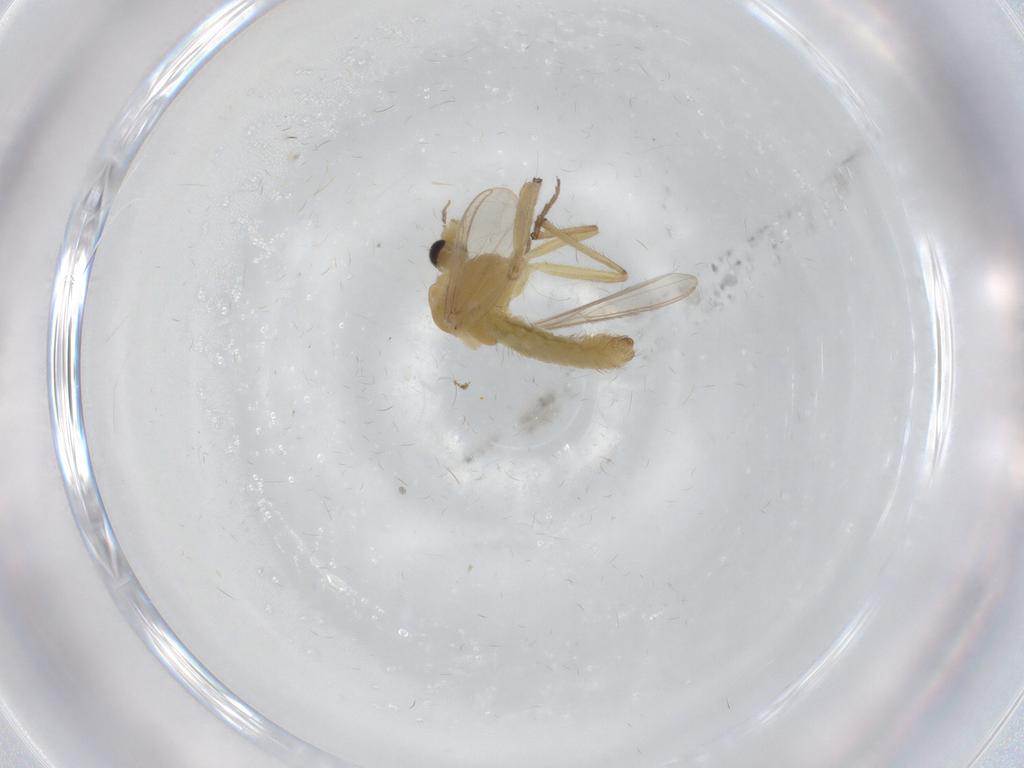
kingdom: Animalia
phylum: Arthropoda
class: Insecta
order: Diptera
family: Chironomidae
